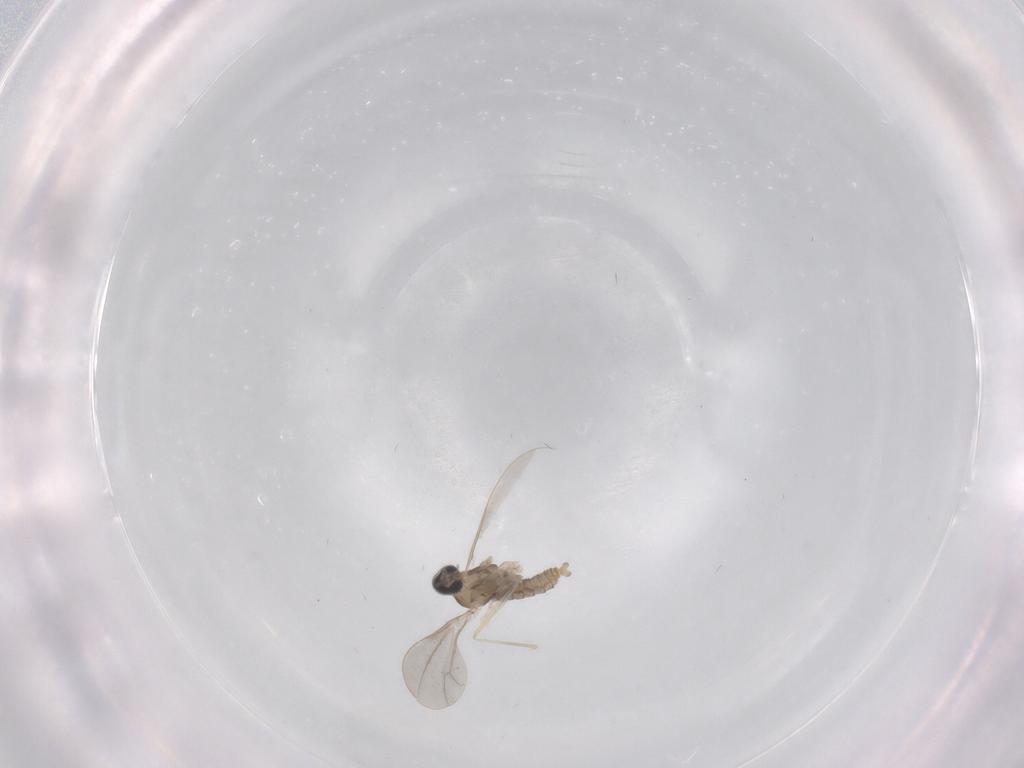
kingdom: Animalia
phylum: Arthropoda
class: Insecta
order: Diptera
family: Cecidomyiidae
